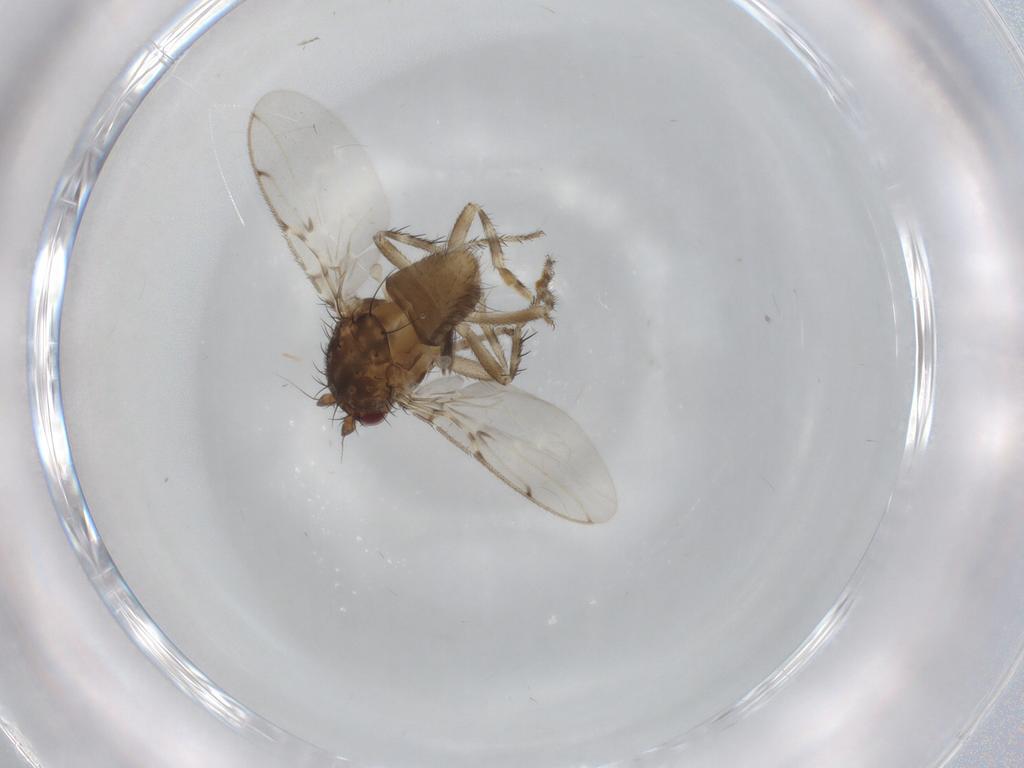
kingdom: Animalia
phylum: Arthropoda
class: Insecta
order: Diptera
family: Sphaeroceridae
